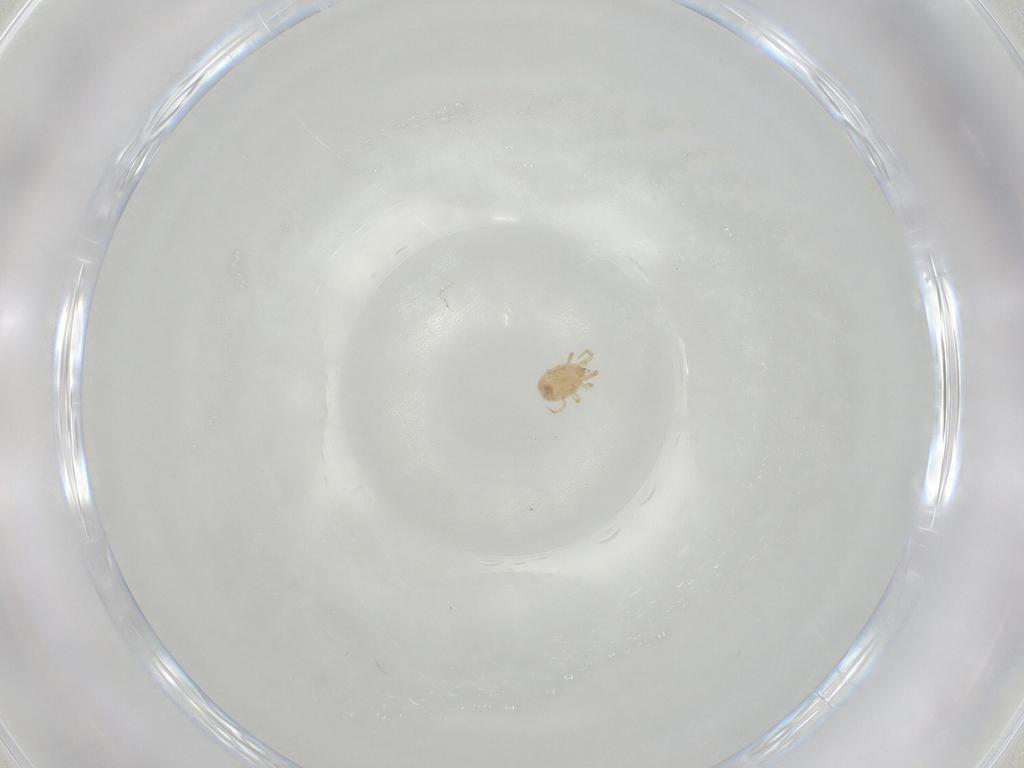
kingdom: Animalia
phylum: Arthropoda
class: Arachnida
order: Mesostigmata
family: Phytoseiidae
